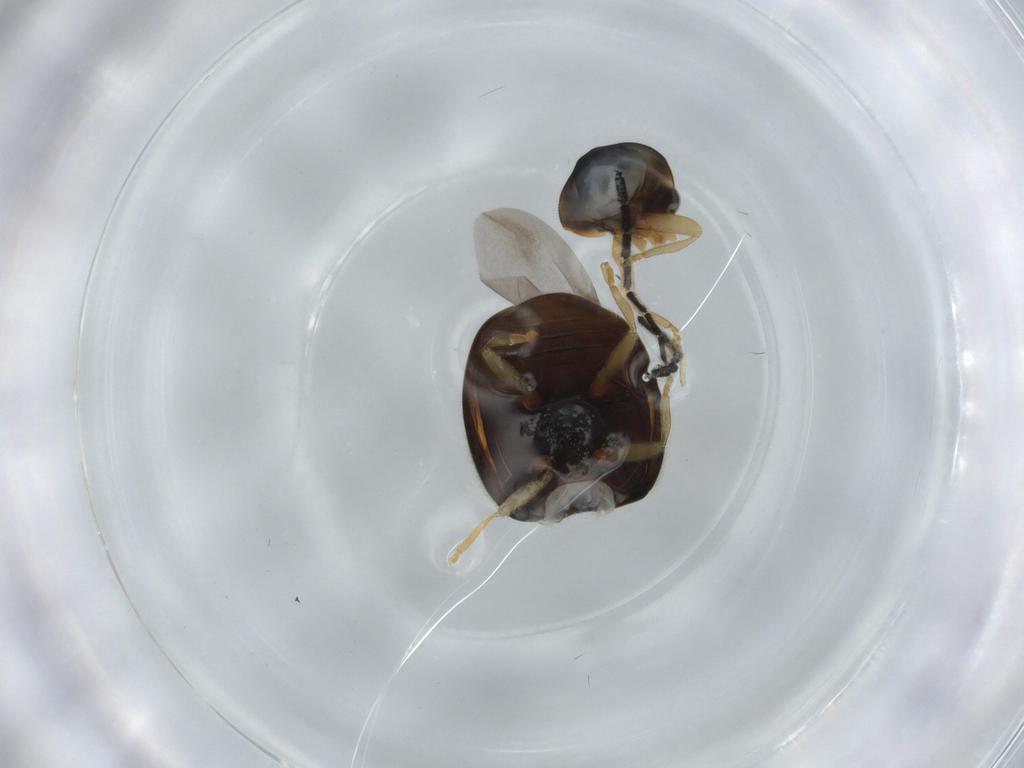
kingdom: Animalia
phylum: Arthropoda
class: Insecta
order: Coleoptera
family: Coccinellidae
